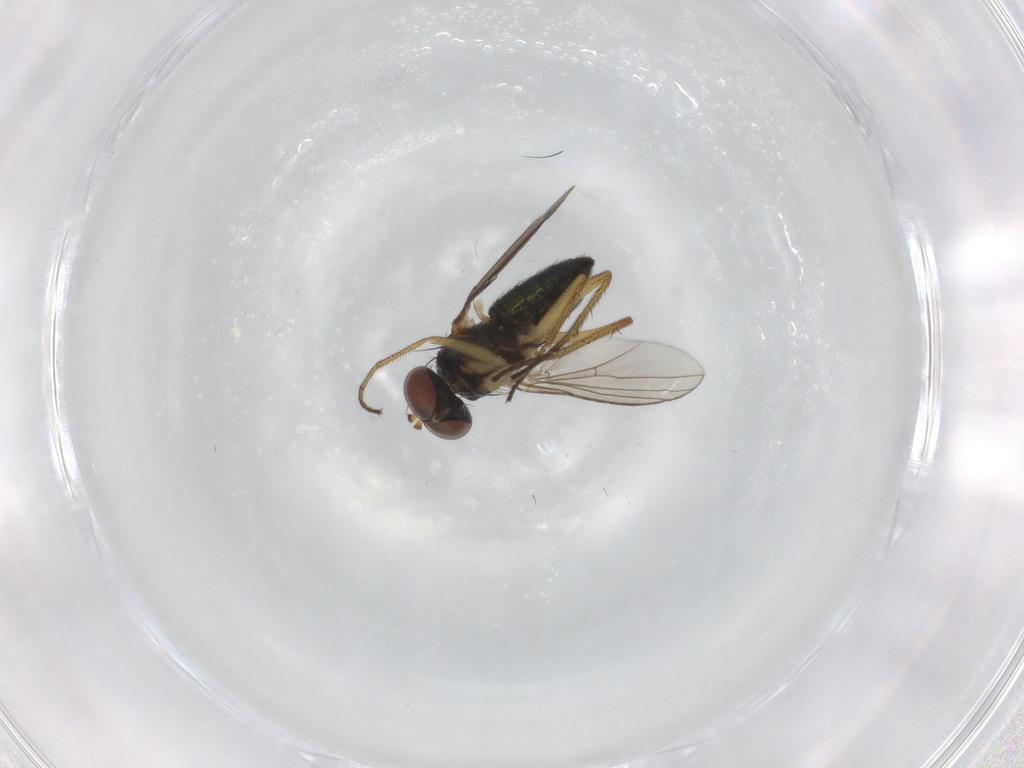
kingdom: Animalia
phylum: Arthropoda
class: Insecta
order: Diptera
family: Dolichopodidae
